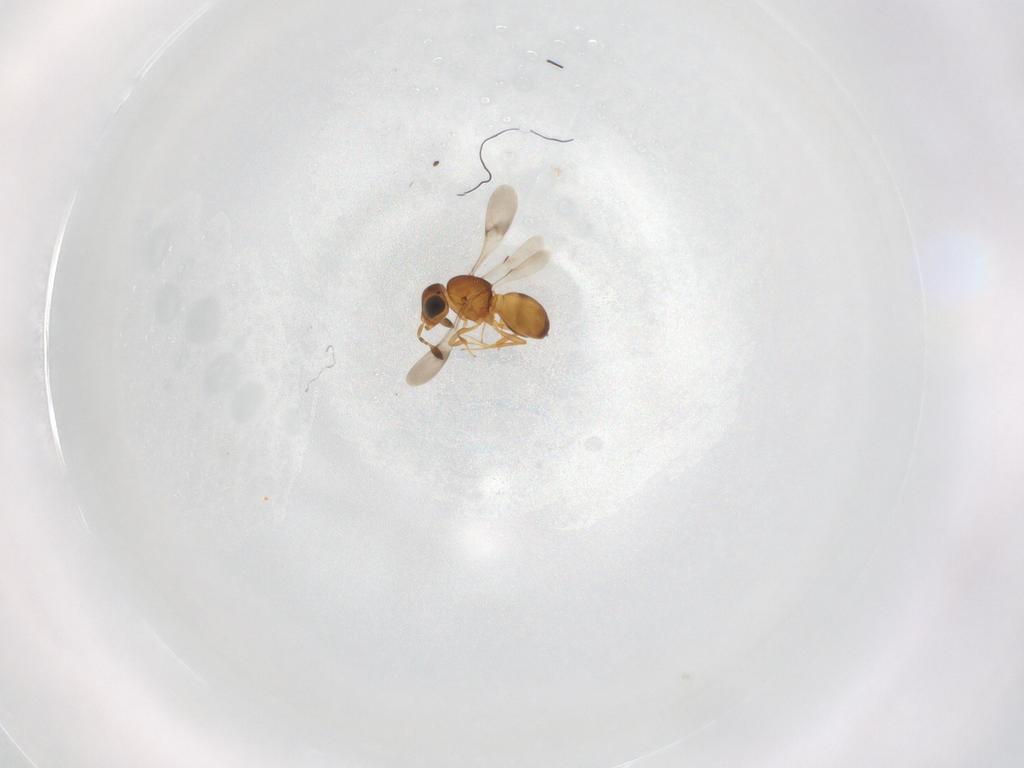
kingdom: Animalia
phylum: Arthropoda
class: Insecta
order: Hymenoptera
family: Scelionidae
